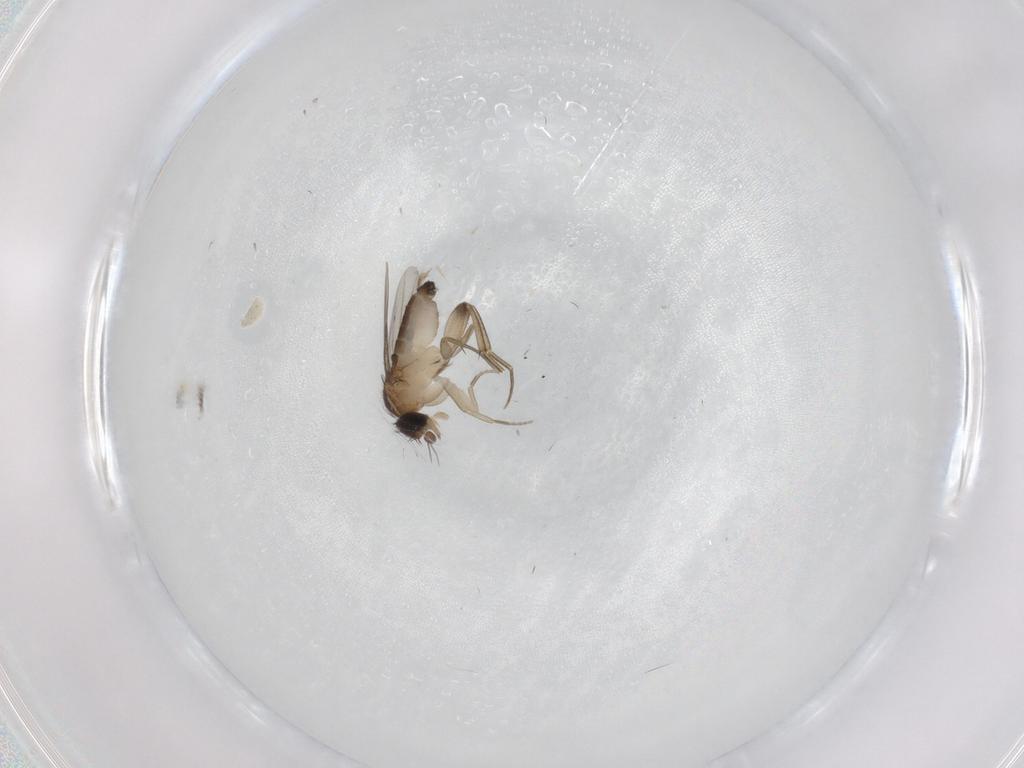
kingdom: Animalia
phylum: Arthropoda
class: Insecta
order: Diptera
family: Phoridae
